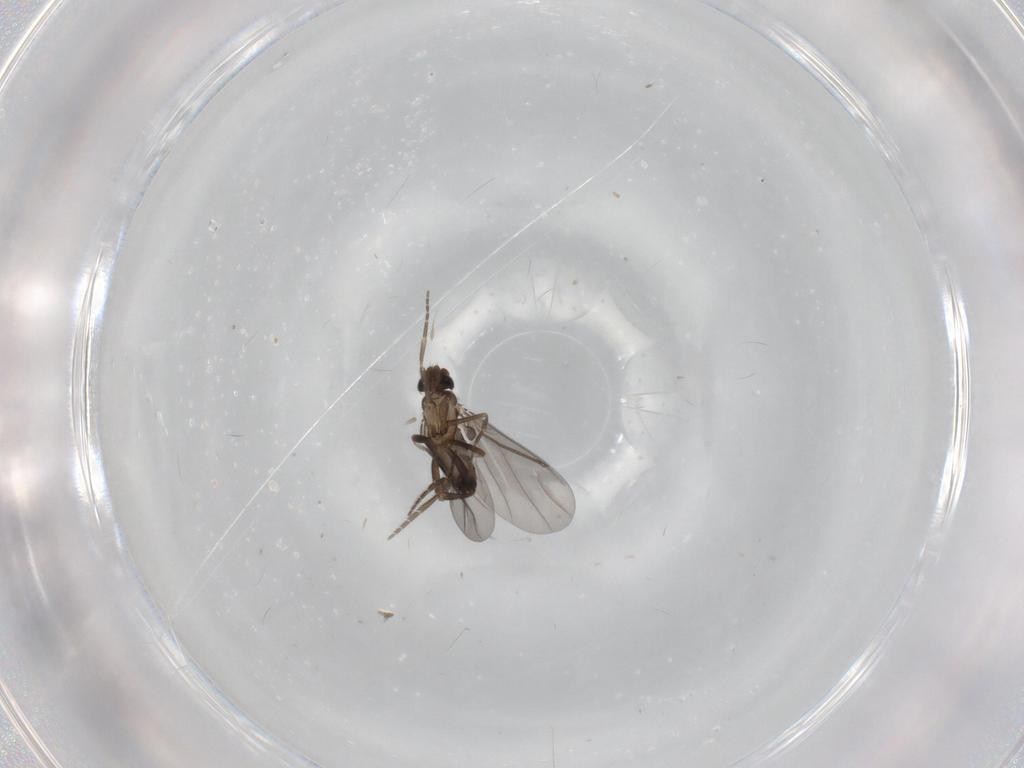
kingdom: Animalia
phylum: Arthropoda
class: Insecta
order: Diptera
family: Phoridae
